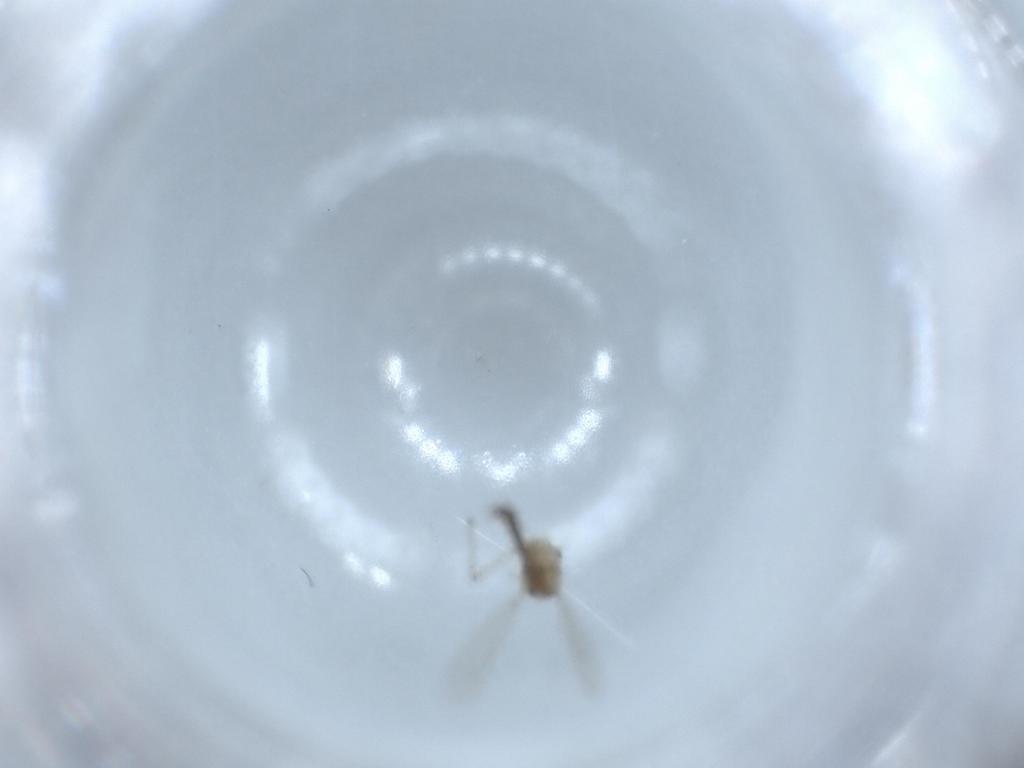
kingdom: Animalia
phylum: Arthropoda
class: Insecta
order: Diptera
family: Chironomidae
